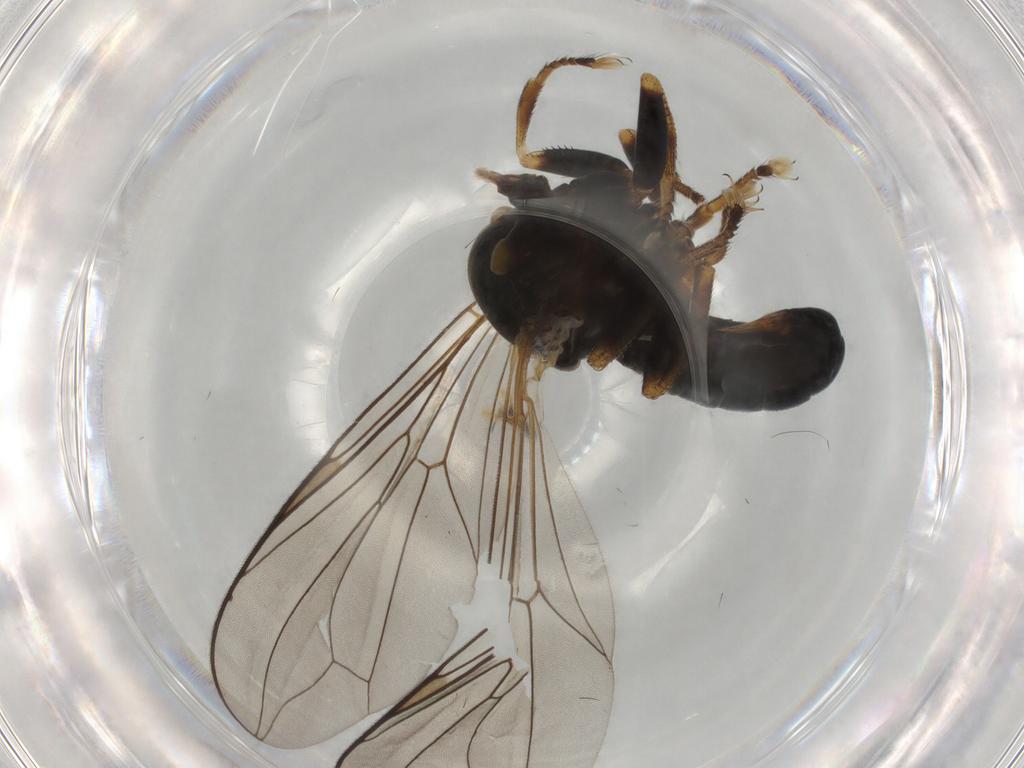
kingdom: Animalia
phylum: Arthropoda
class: Insecta
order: Diptera
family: Pipunculidae
